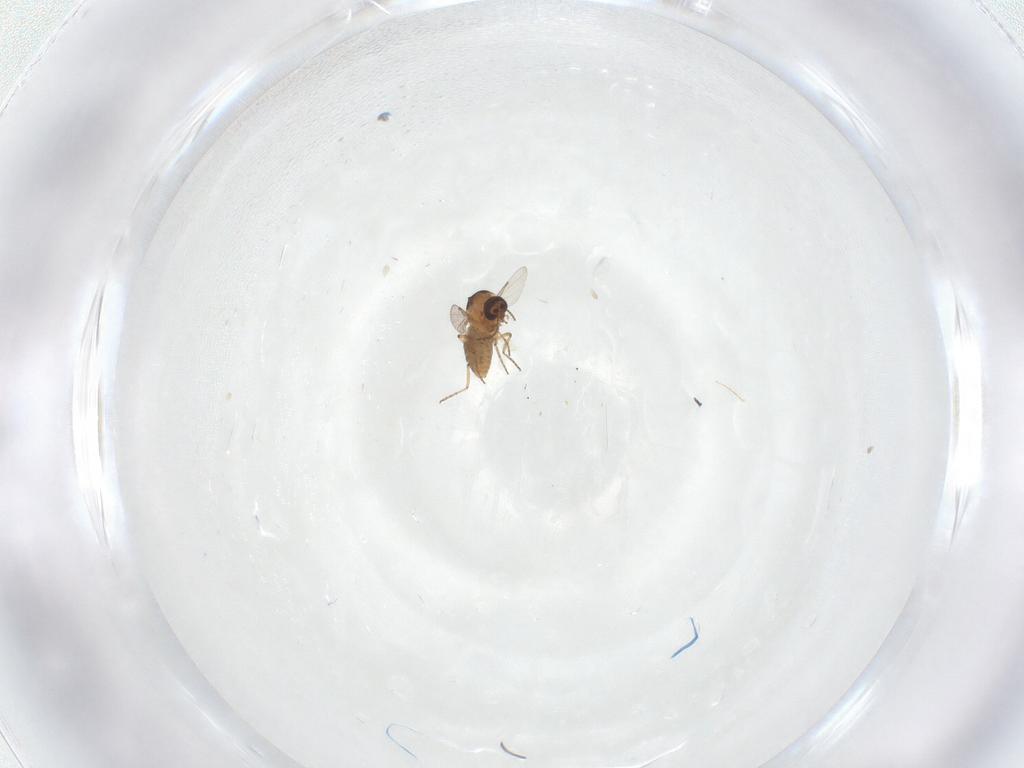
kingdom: Animalia
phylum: Arthropoda
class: Insecta
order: Diptera
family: Ceratopogonidae
